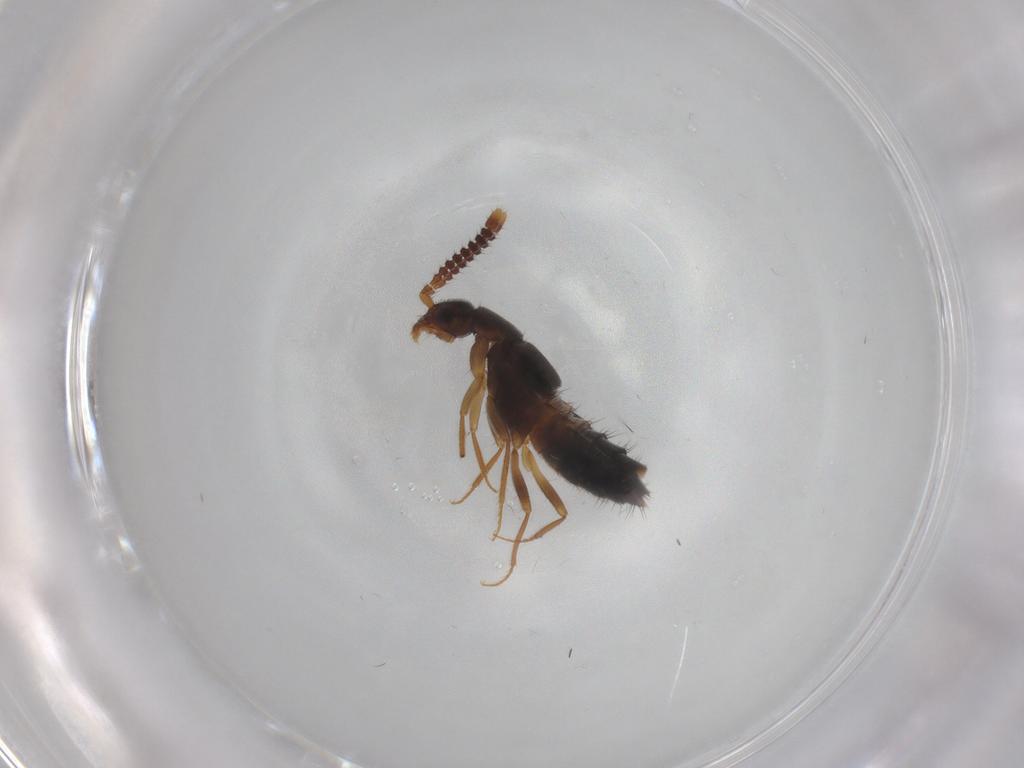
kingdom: Animalia
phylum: Arthropoda
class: Insecta
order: Coleoptera
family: Staphylinidae
